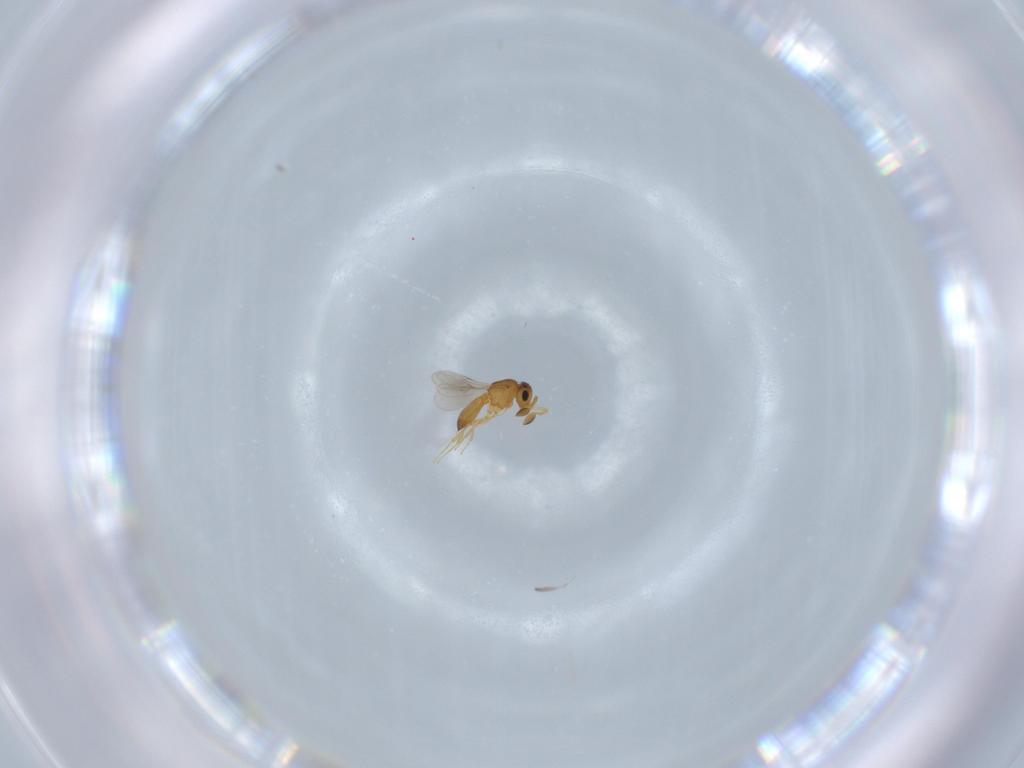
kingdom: Animalia
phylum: Arthropoda
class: Insecta
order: Hymenoptera
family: Scelionidae
